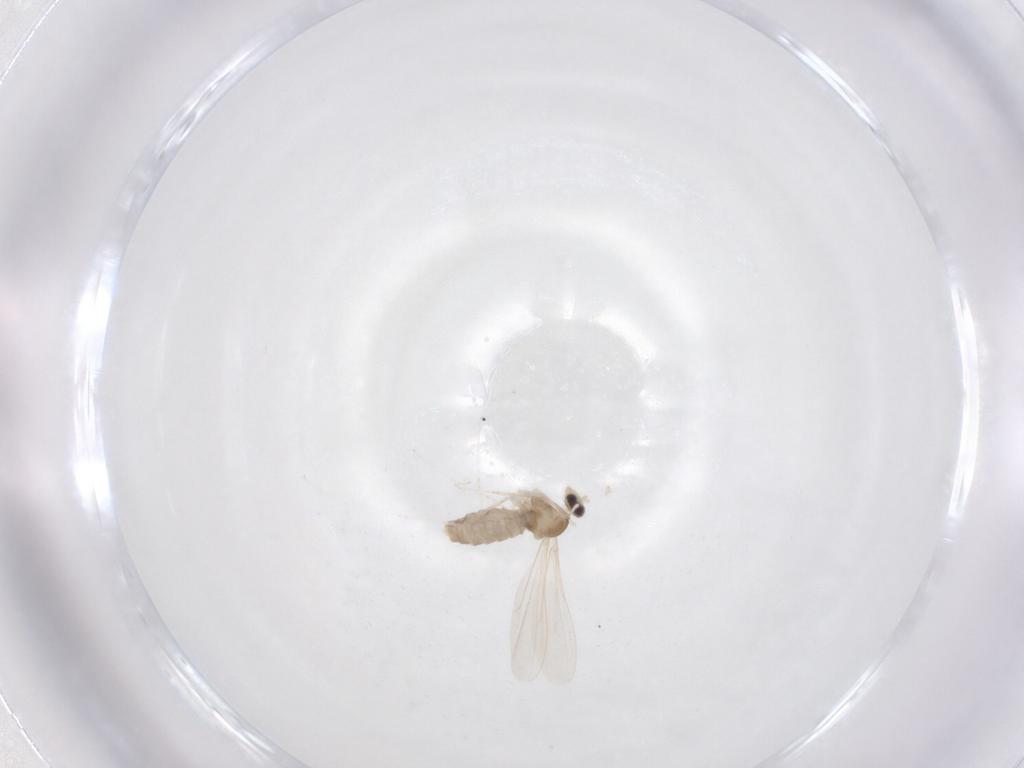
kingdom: Animalia
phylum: Arthropoda
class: Insecta
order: Diptera
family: Cecidomyiidae
